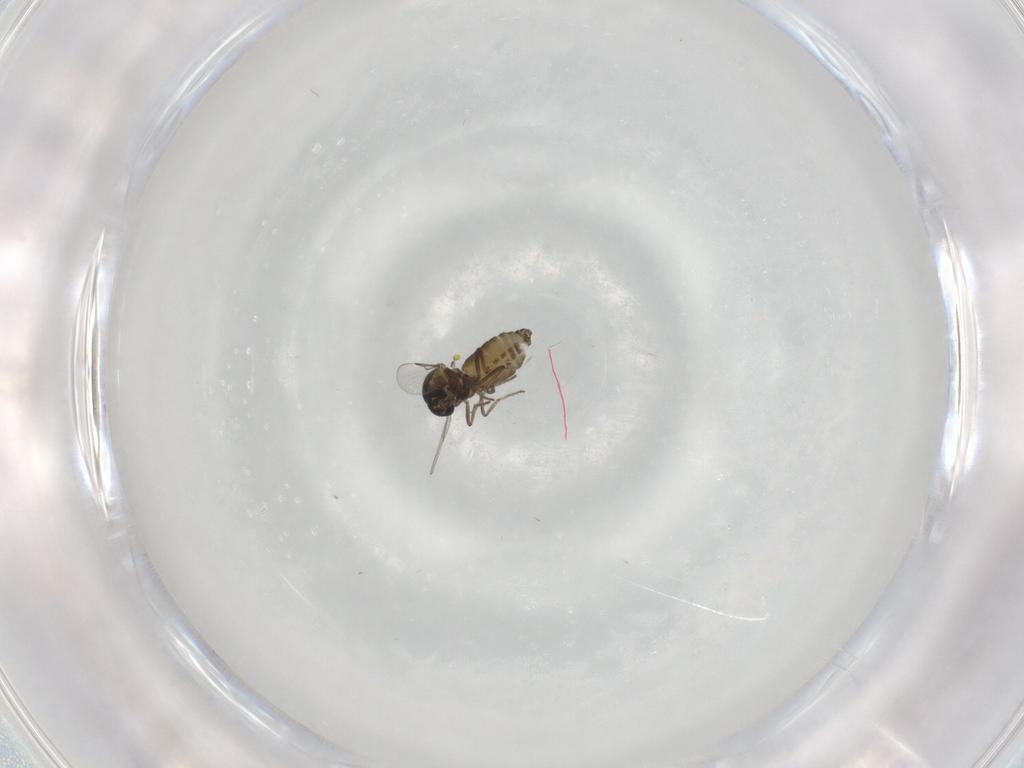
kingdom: Animalia
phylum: Arthropoda
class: Insecta
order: Diptera
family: Ceratopogonidae
